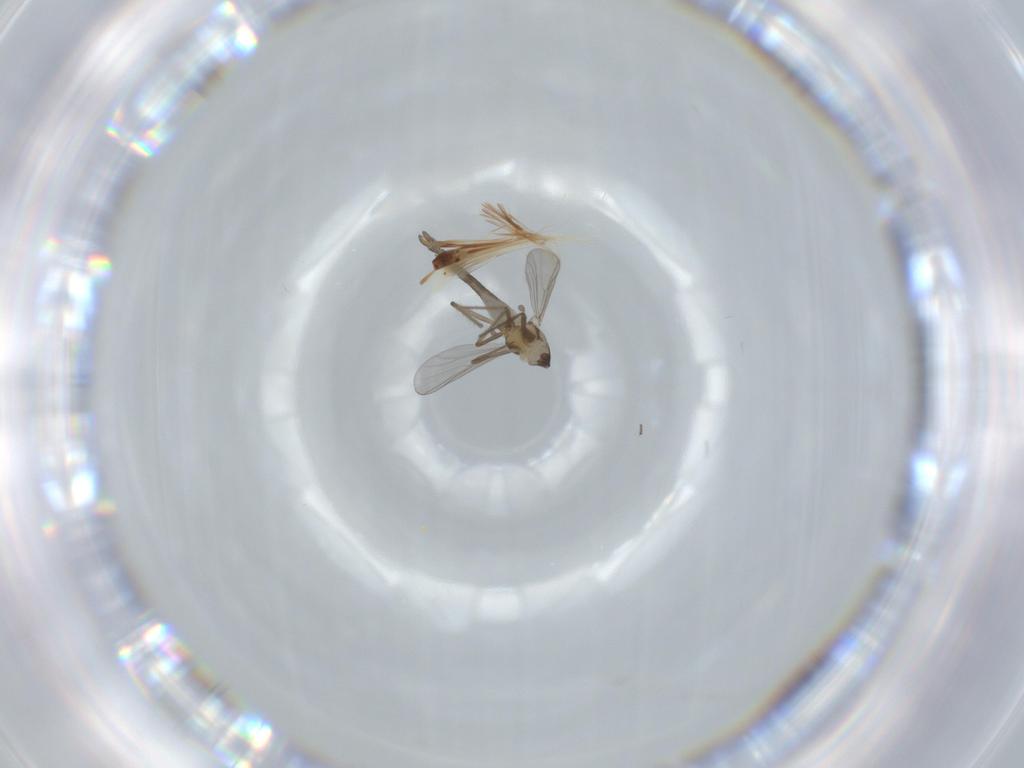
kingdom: Animalia
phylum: Arthropoda
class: Insecta
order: Diptera
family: Chironomidae
